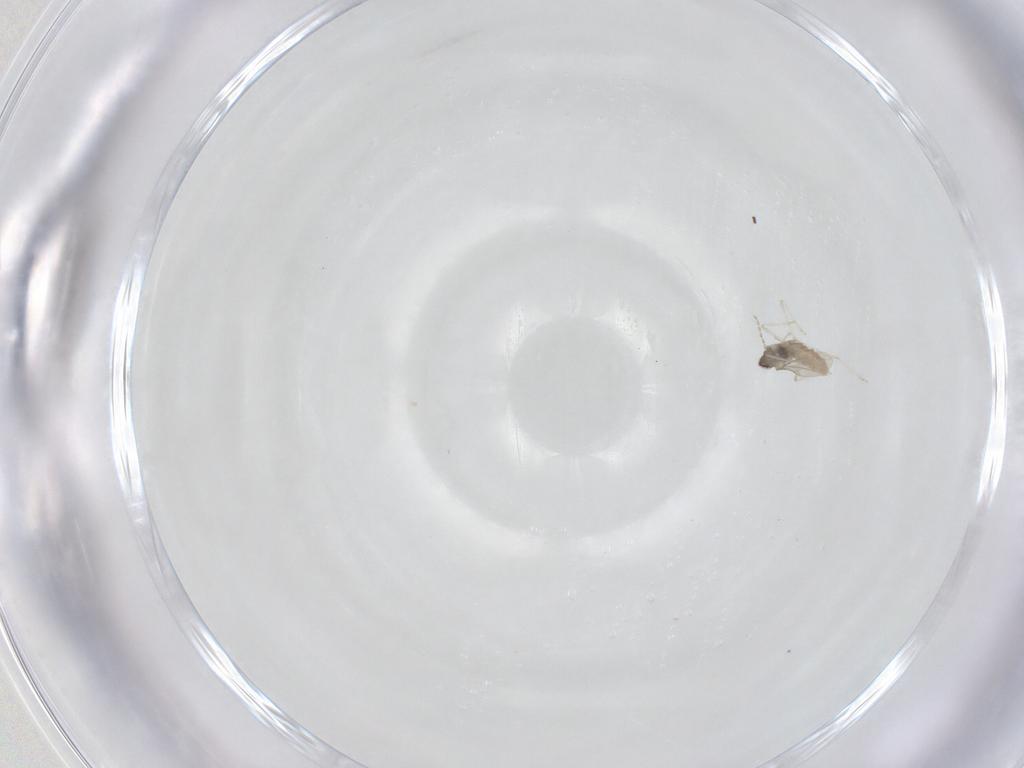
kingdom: Animalia
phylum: Arthropoda
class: Insecta
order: Diptera
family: Cecidomyiidae
